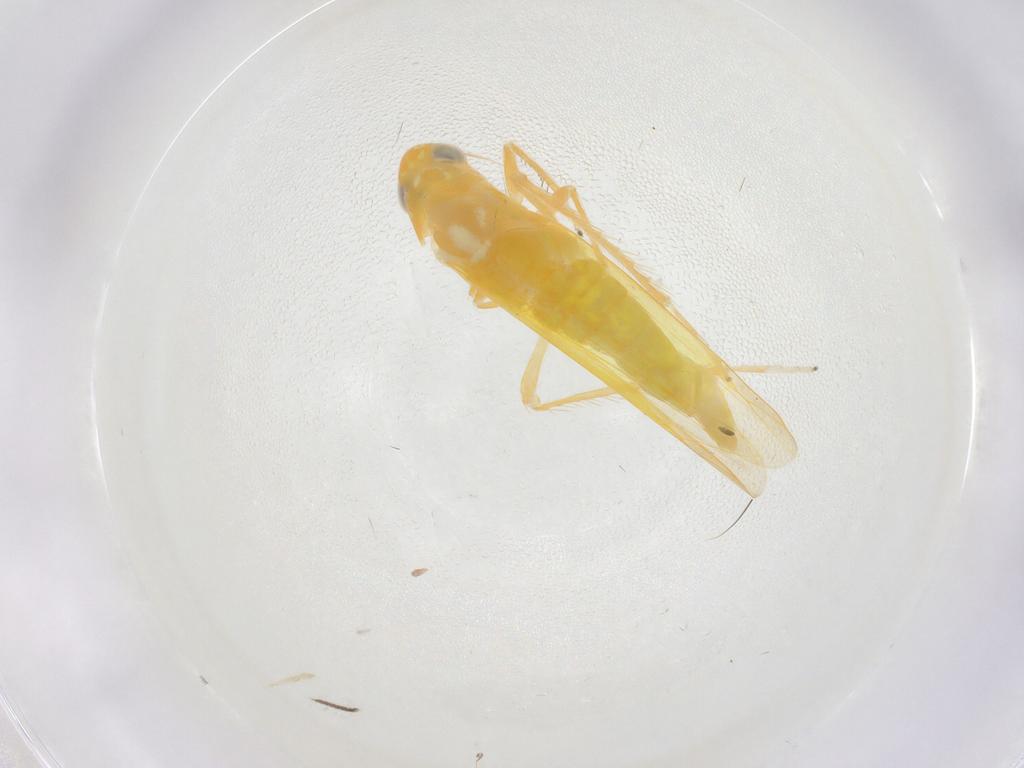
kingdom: Animalia
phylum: Arthropoda
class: Insecta
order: Hemiptera
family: Cicadellidae
